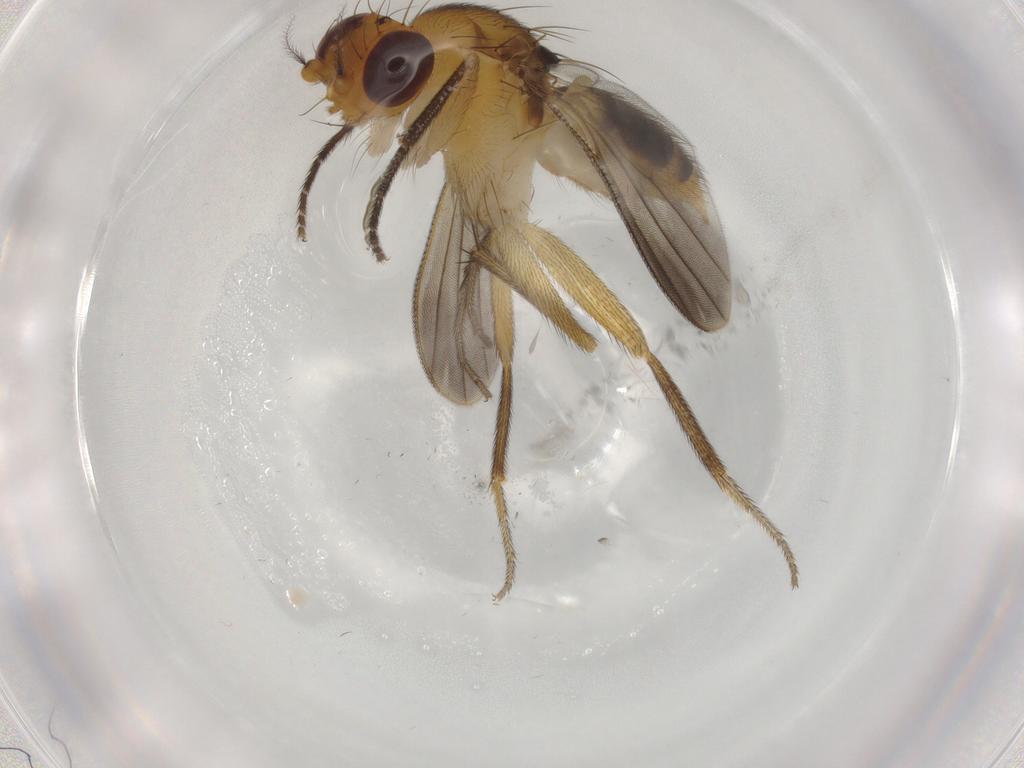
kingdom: Animalia
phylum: Arthropoda
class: Insecta
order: Diptera
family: Clusiidae
